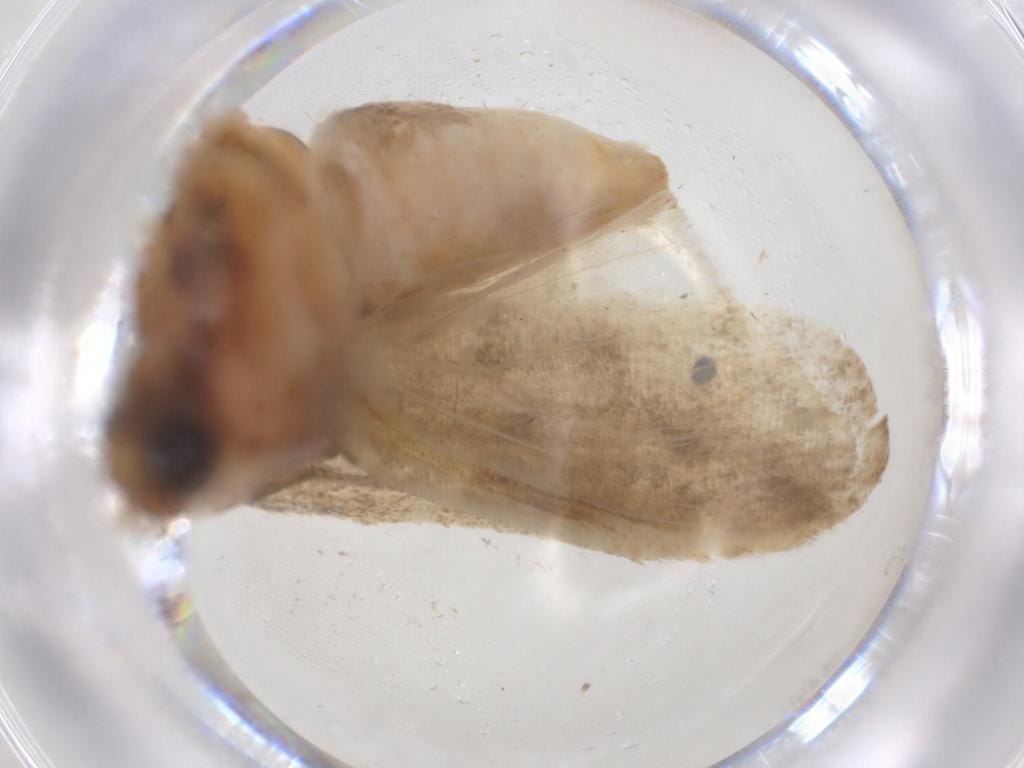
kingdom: Animalia
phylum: Arthropoda
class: Insecta
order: Lepidoptera
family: Pyralidae
